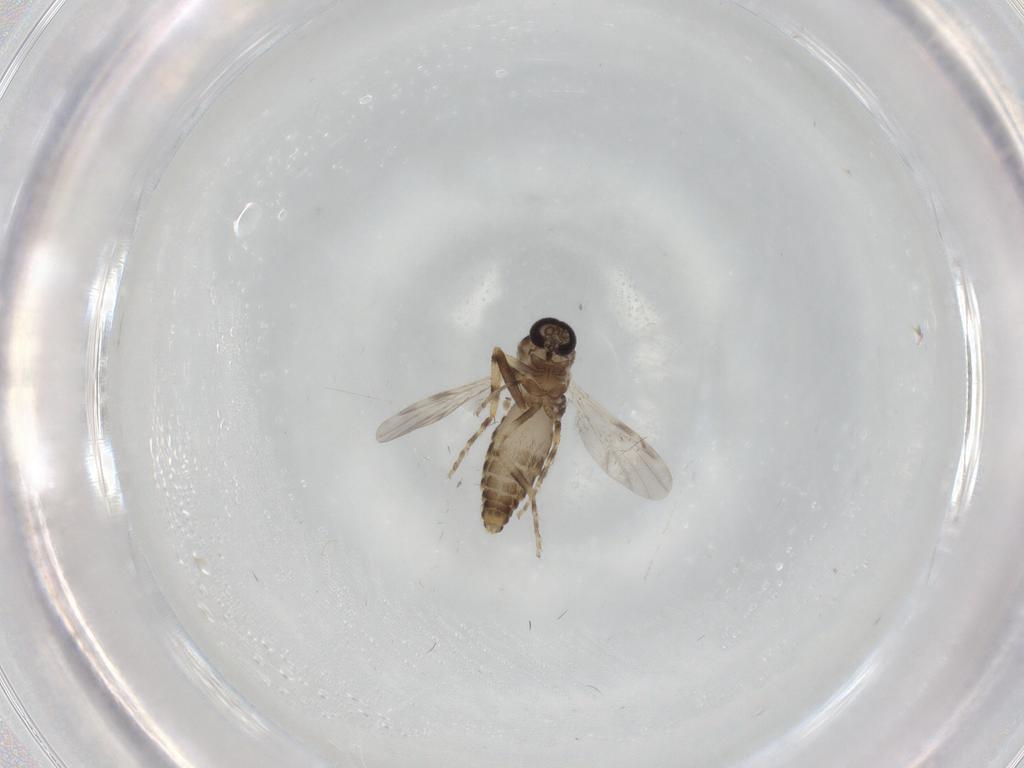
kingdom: Animalia
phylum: Arthropoda
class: Insecta
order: Diptera
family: Ceratopogonidae
